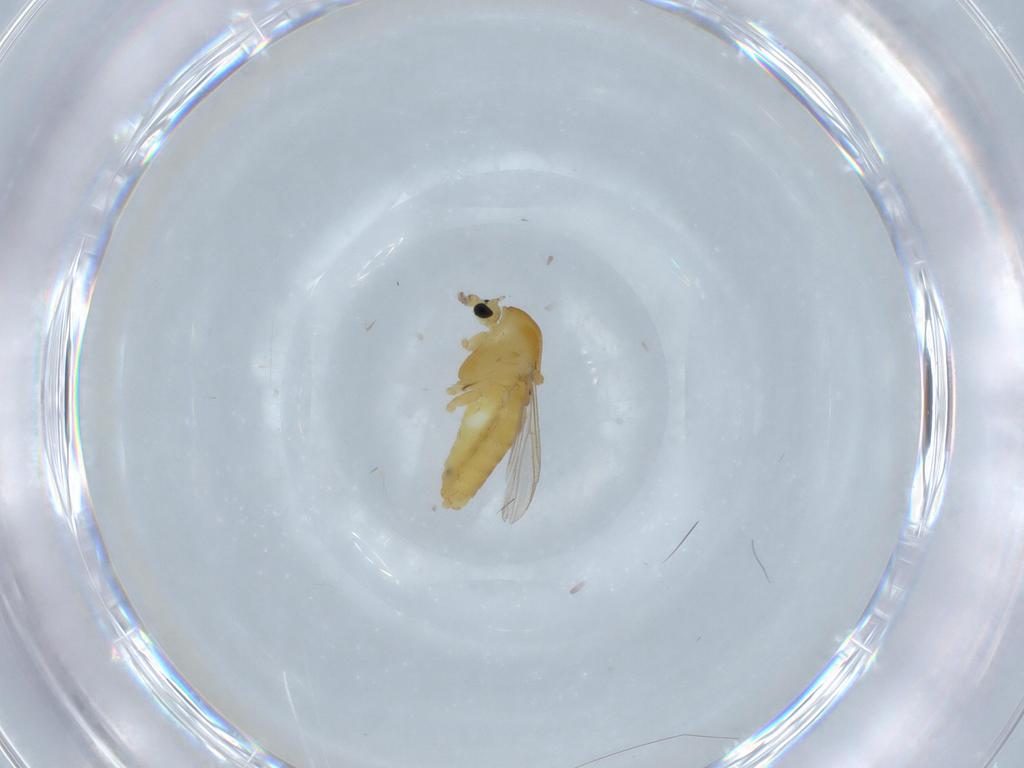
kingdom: Animalia
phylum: Arthropoda
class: Insecta
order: Diptera
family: Chironomidae
